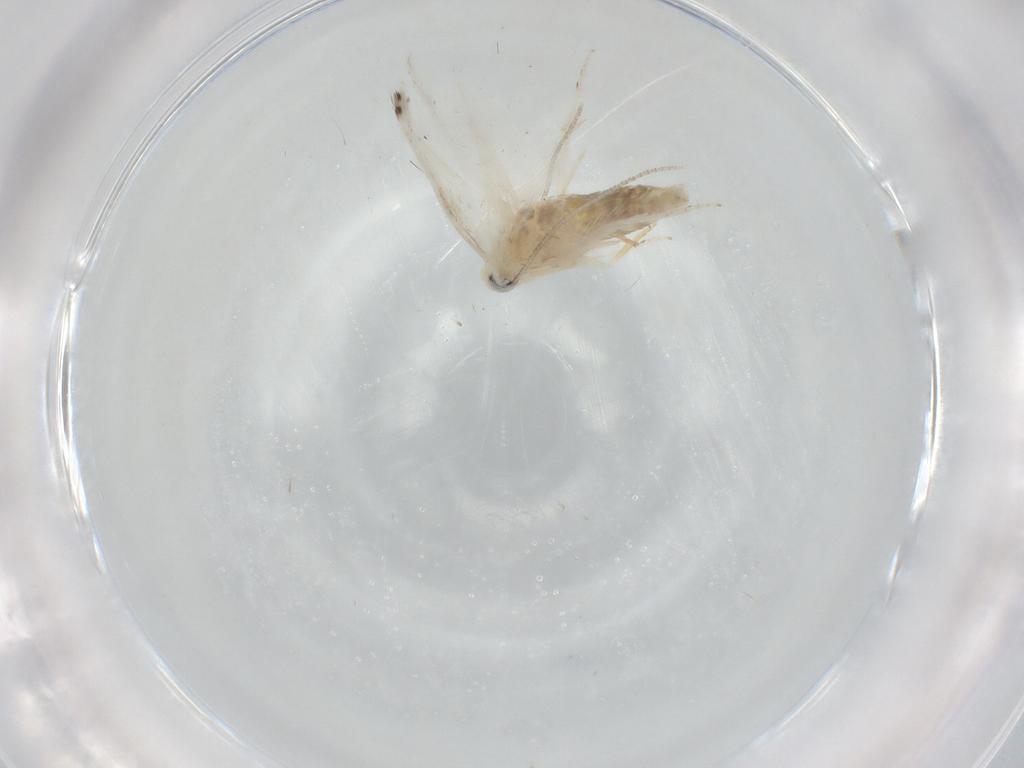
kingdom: Animalia
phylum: Arthropoda
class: Insecta
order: Lepidoptera
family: Gelechiidae
